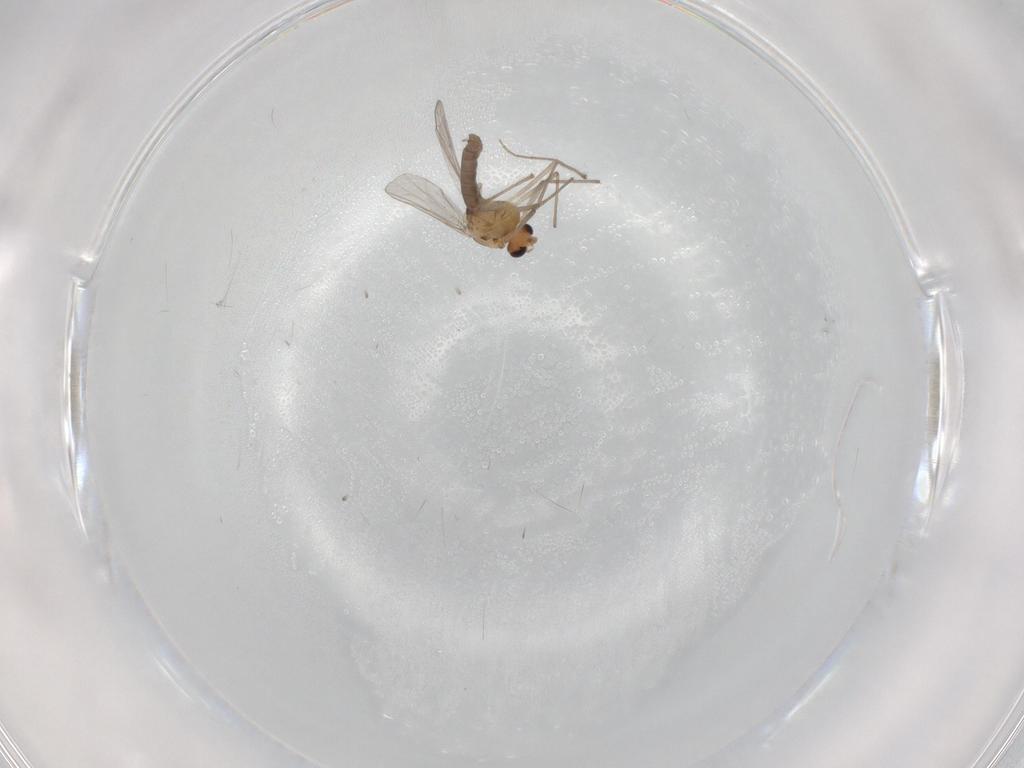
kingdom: Animalia
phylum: Arthropoda
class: Insecta
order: Diptera
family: Chironomidae
